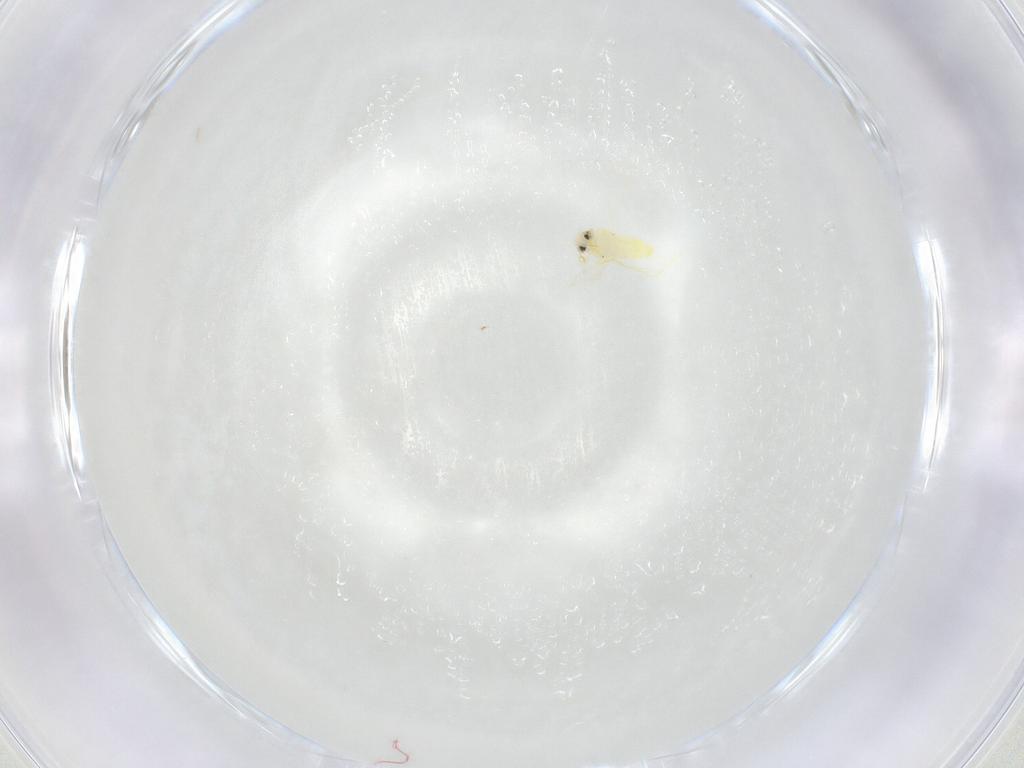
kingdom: Animalia
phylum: Arthropoda
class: Insecta
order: Hemiptera
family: Aleyrodidae
